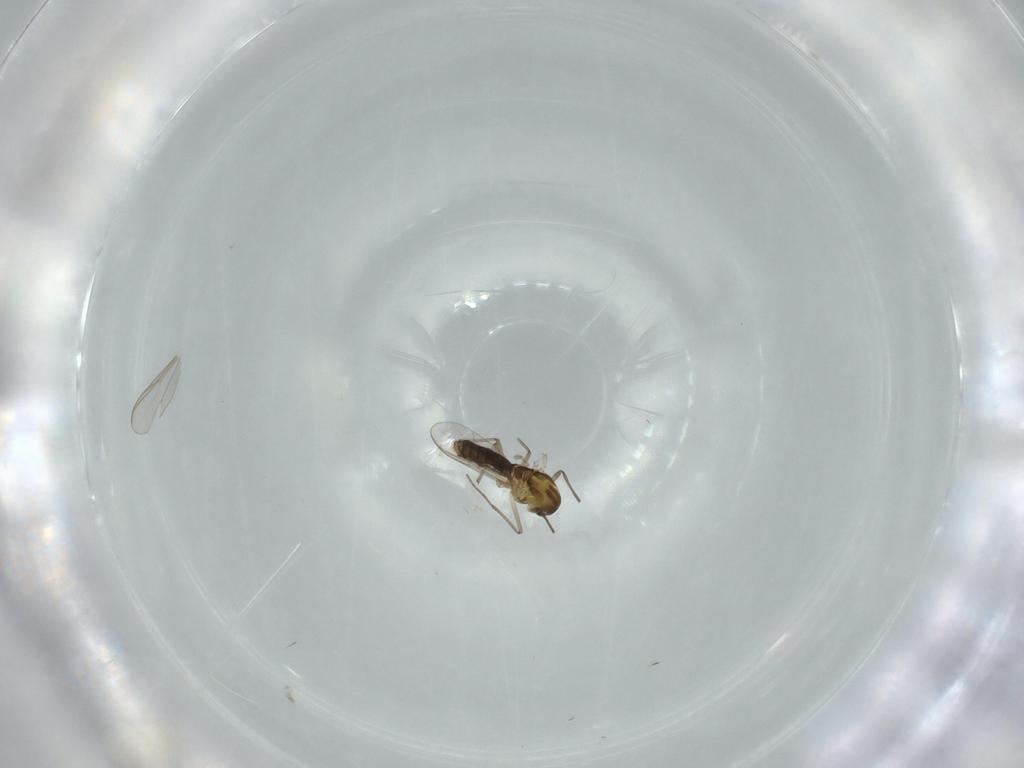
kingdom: Animalia
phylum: Arthropoda
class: Insecta
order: Diptera
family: Chironomidae
